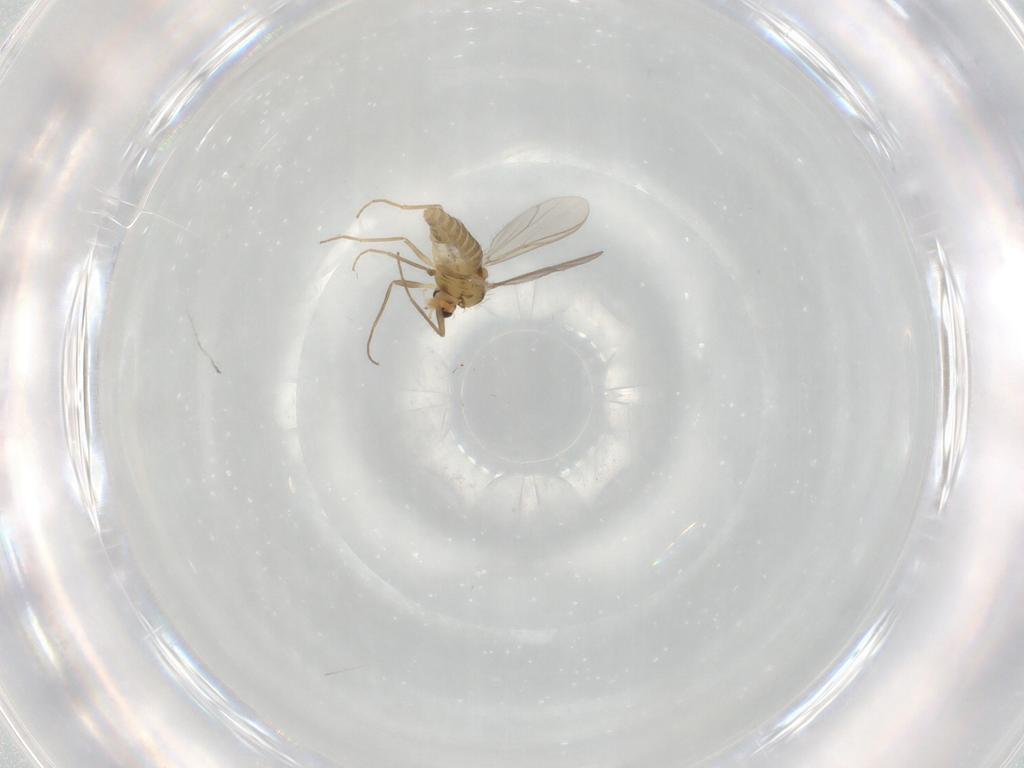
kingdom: Animalia
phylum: Arthropoda
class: Insecta
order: Diptera
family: Chironomidae
